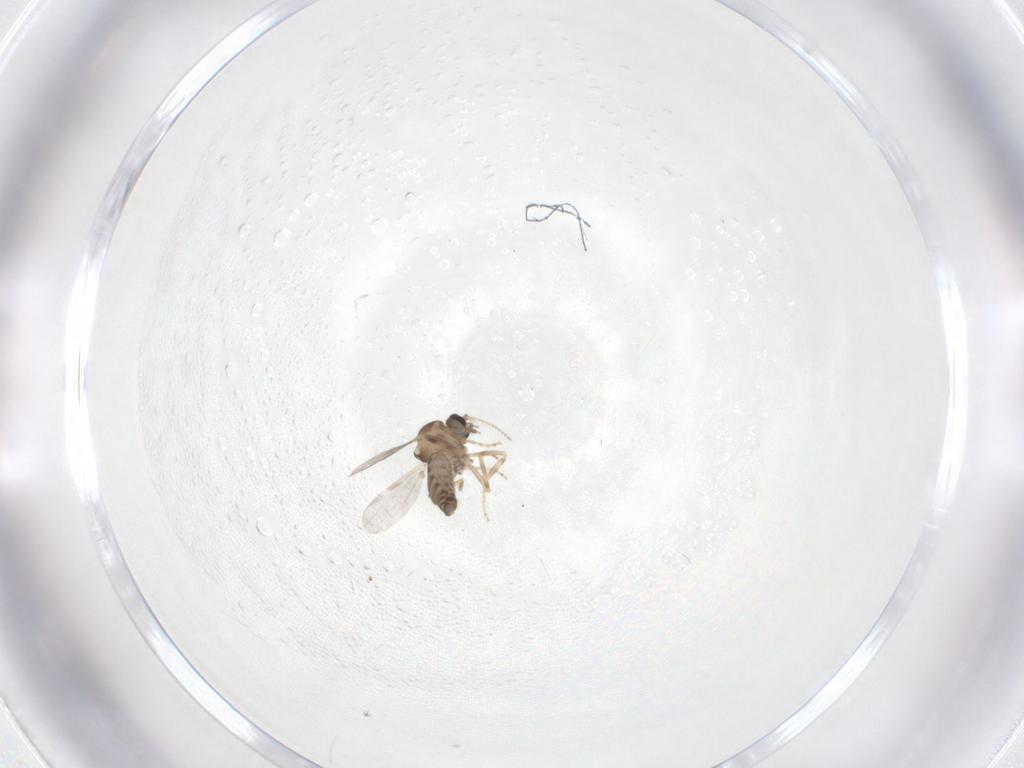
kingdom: Animalia
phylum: Arthropoda
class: Insecta
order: Diptera
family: Ceratopogonidae
